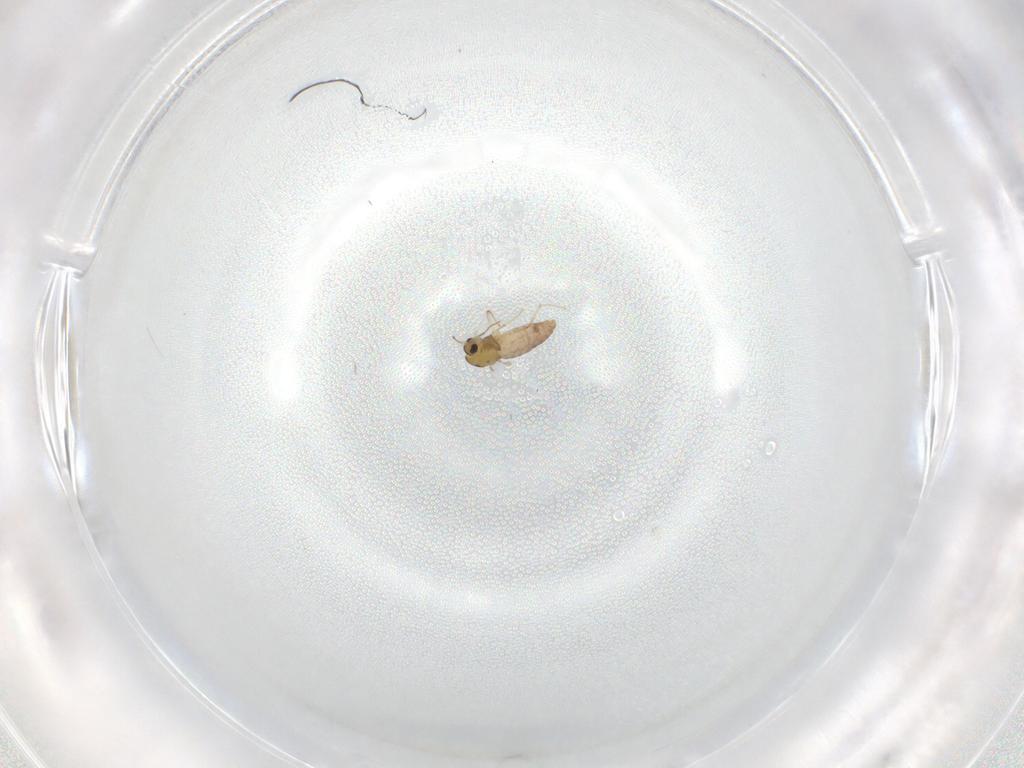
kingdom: Animalia
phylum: Arthropoda
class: Insecta
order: Diptera
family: Chironomidae
